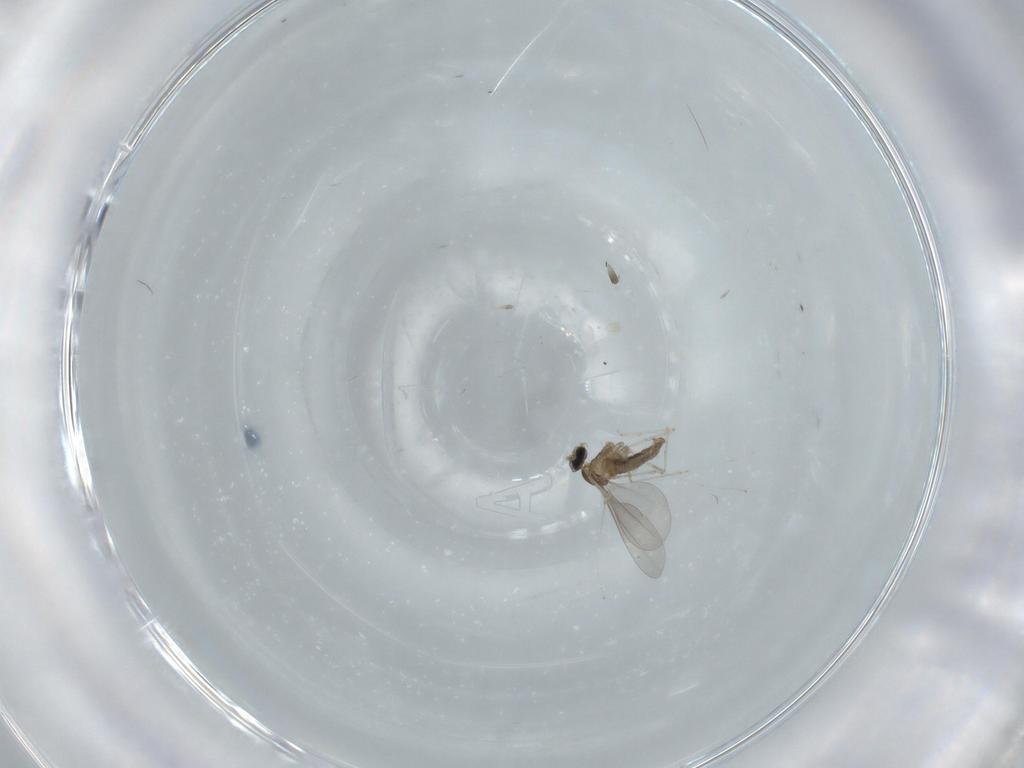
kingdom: Animalia
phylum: Arthropoda
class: Insecta
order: Diptera
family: Cecidomyiidae
